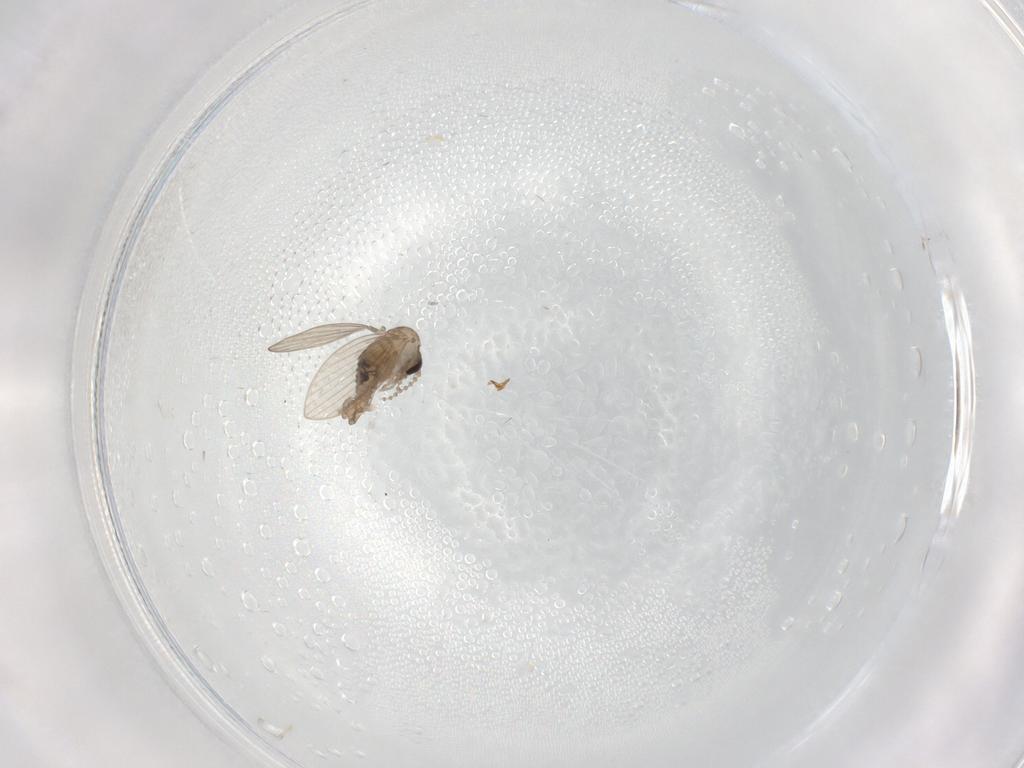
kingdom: Animalia
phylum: Arthropoda
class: Insecta
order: Diptera
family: Psychodidae
